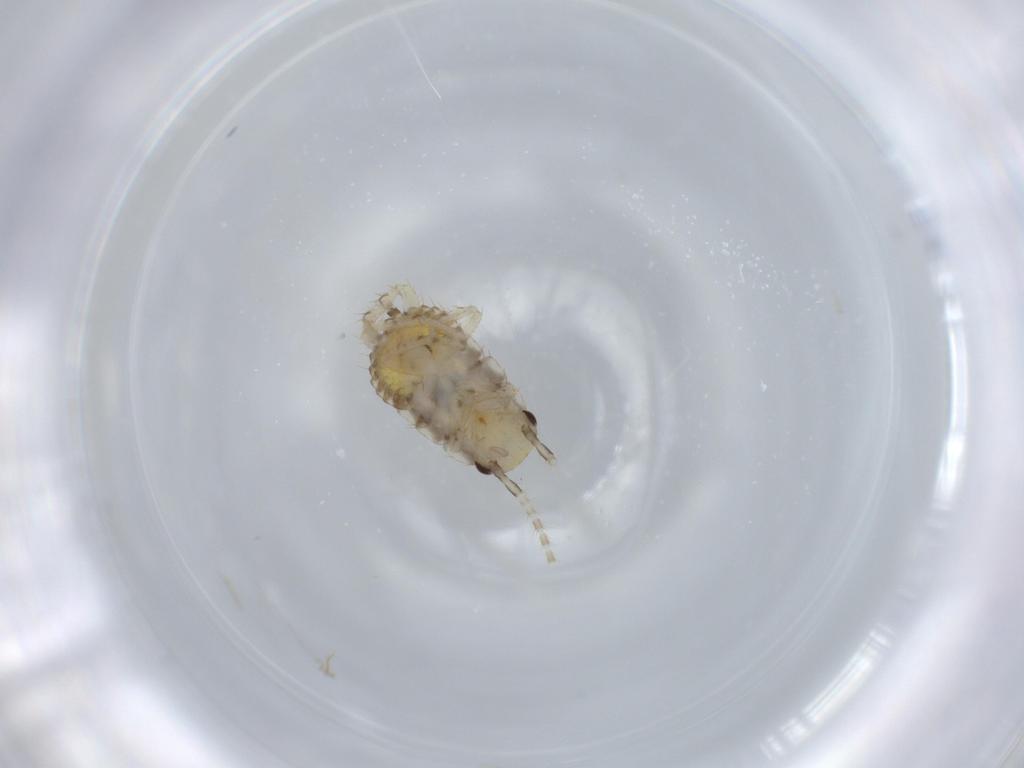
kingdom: Animalia
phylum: Arthropoda
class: Insecta
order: Blattodea
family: Ectobiidae
